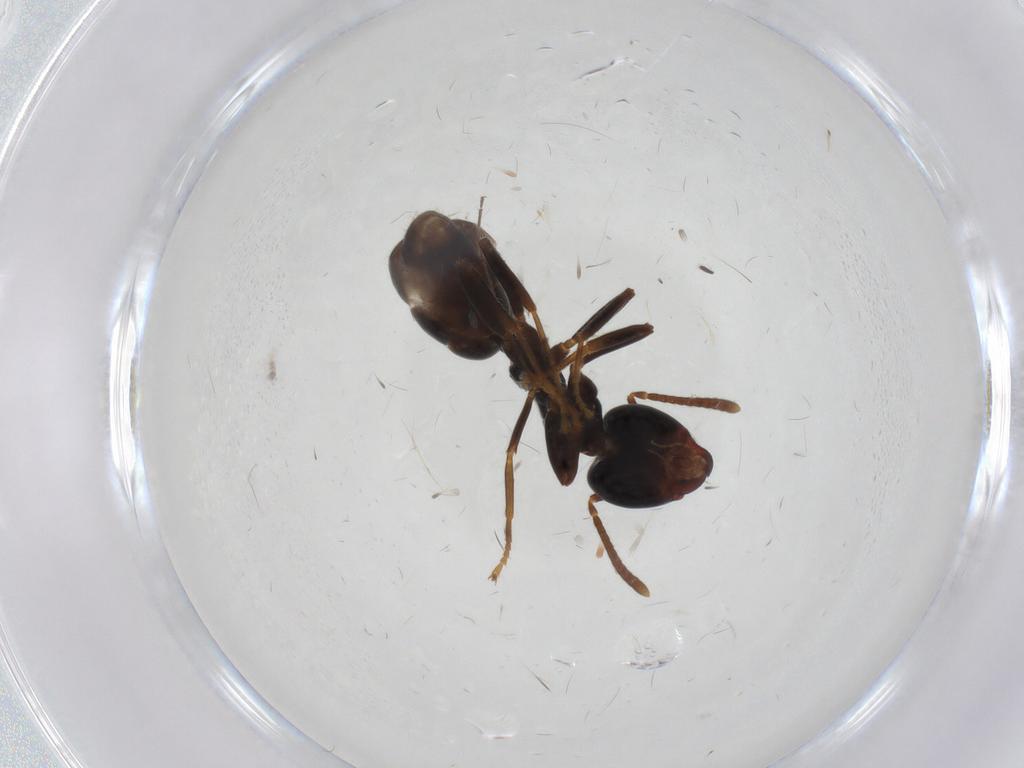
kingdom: Animalia
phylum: Arthropoda
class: Insecta
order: Hymenoptera
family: Formicidae
